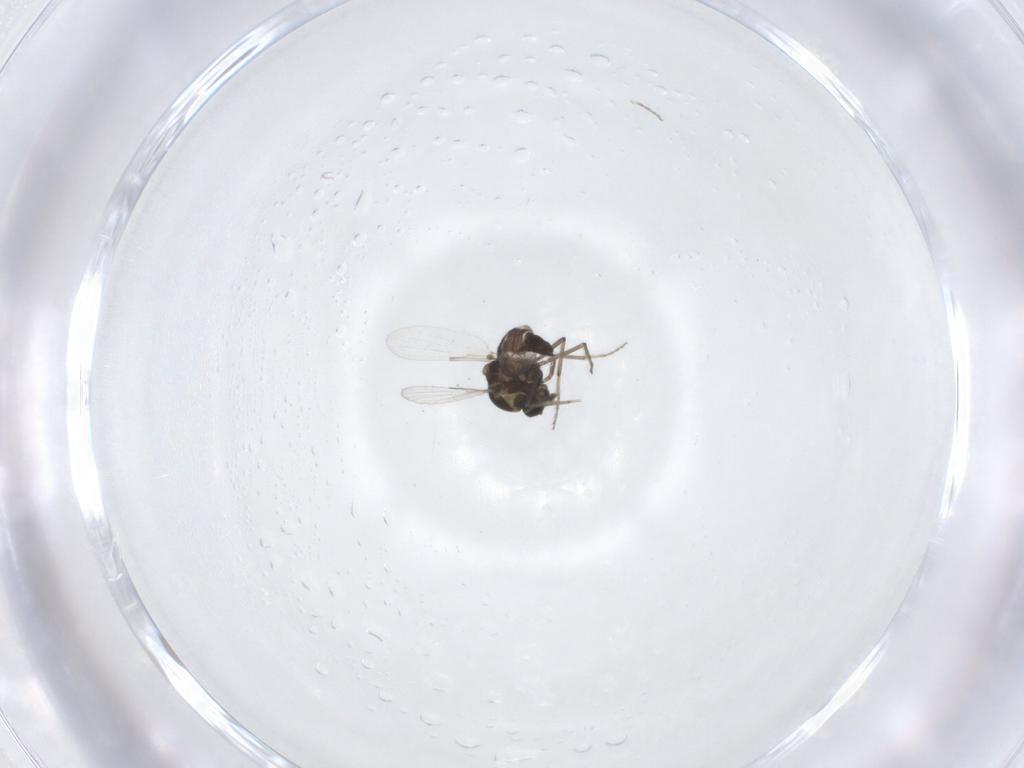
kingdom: Animalia
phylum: Arthropoda
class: Insecta
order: Diptera
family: Ceratopogonidae
